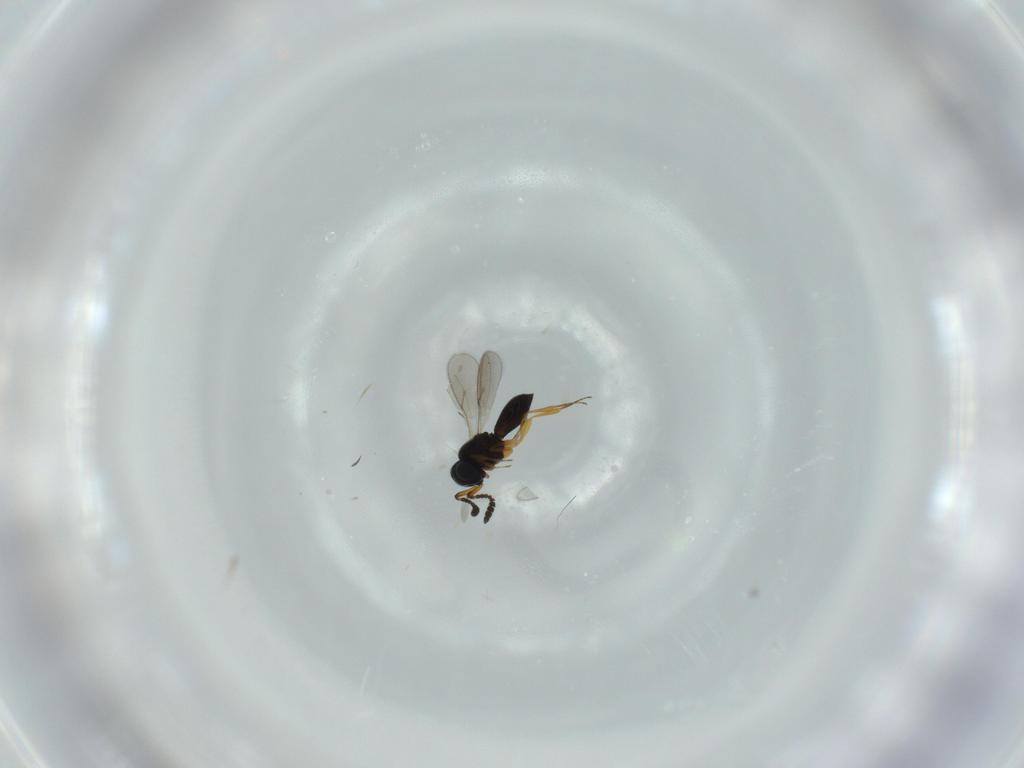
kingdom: Animalia
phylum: Arthropoda
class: Insecta
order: Hymenoptera
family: Scelionidae
